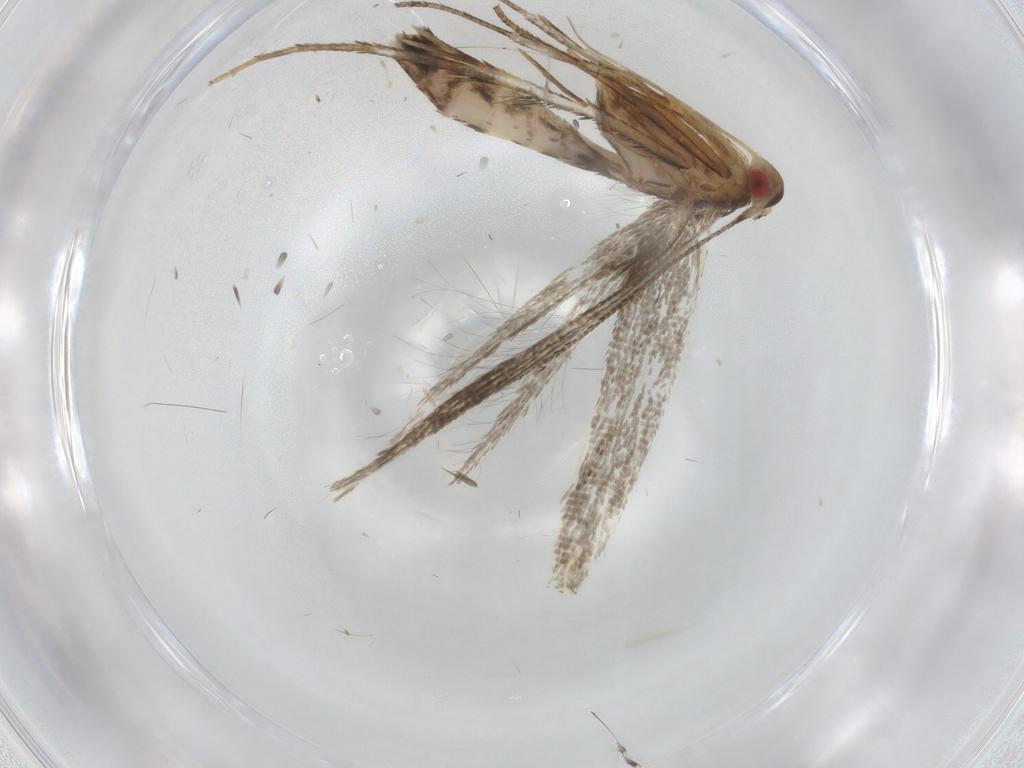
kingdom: Animalia
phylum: Arthropoda
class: Insecta
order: Lepidoptera
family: Cosmopterigidae
